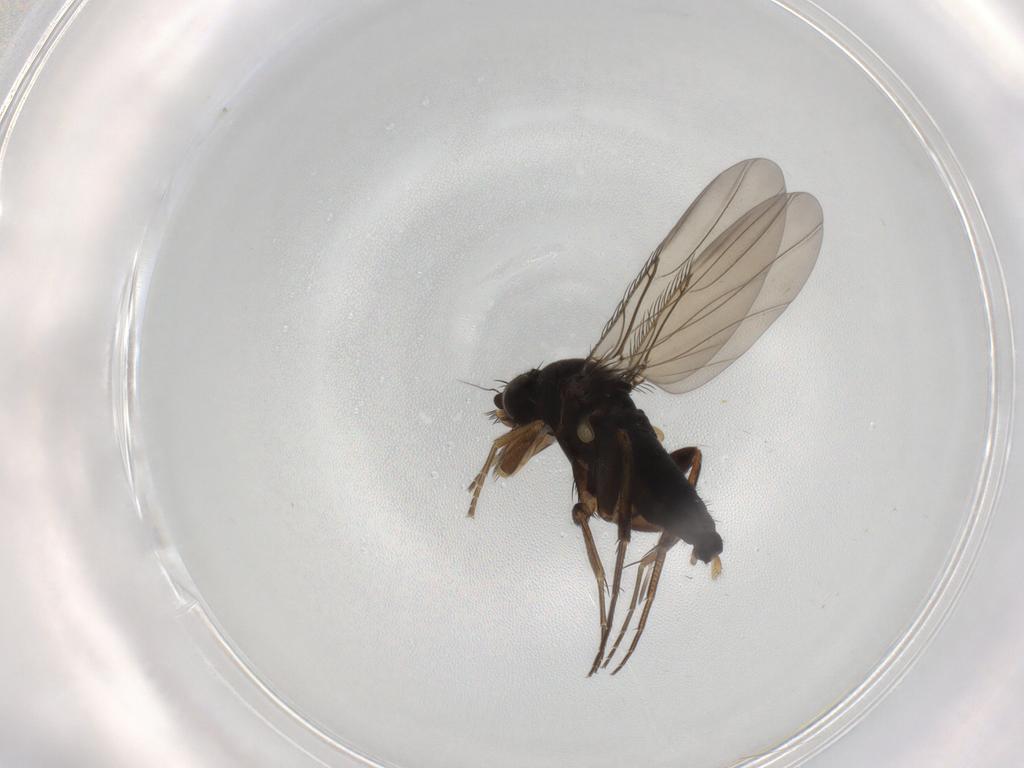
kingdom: Animalia
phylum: Arthropoda
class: Insecta
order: Diptera
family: Phoridae
